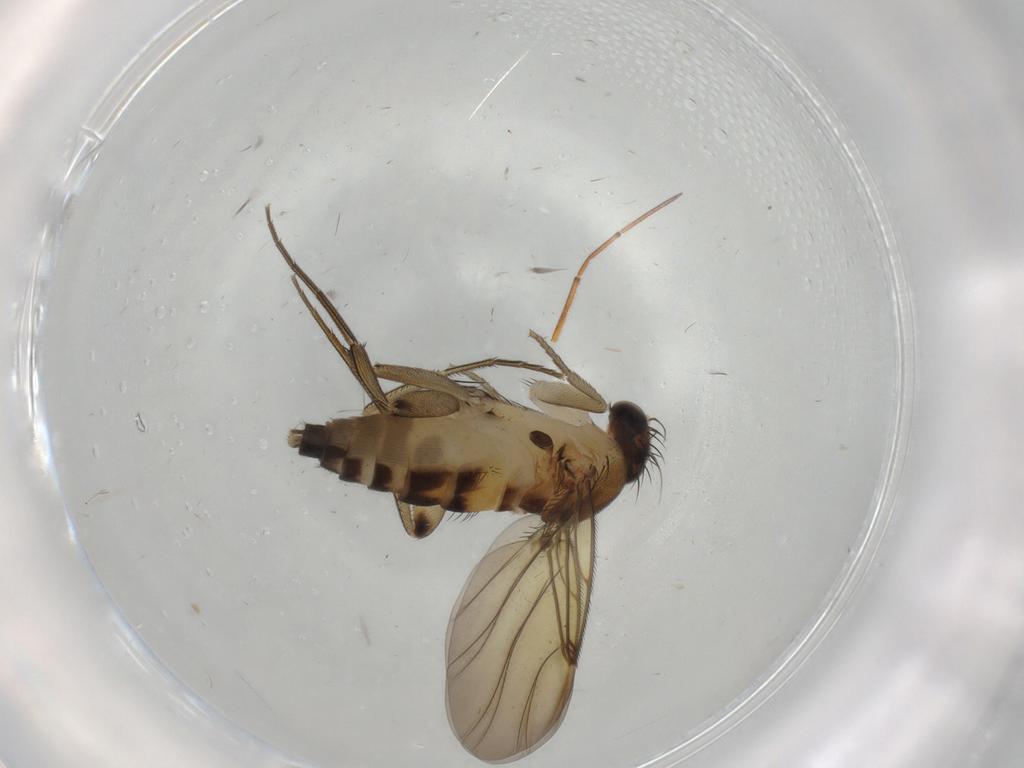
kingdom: Animalia
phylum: Arthropoda
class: Insecta
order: Diptera
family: Phoridae
